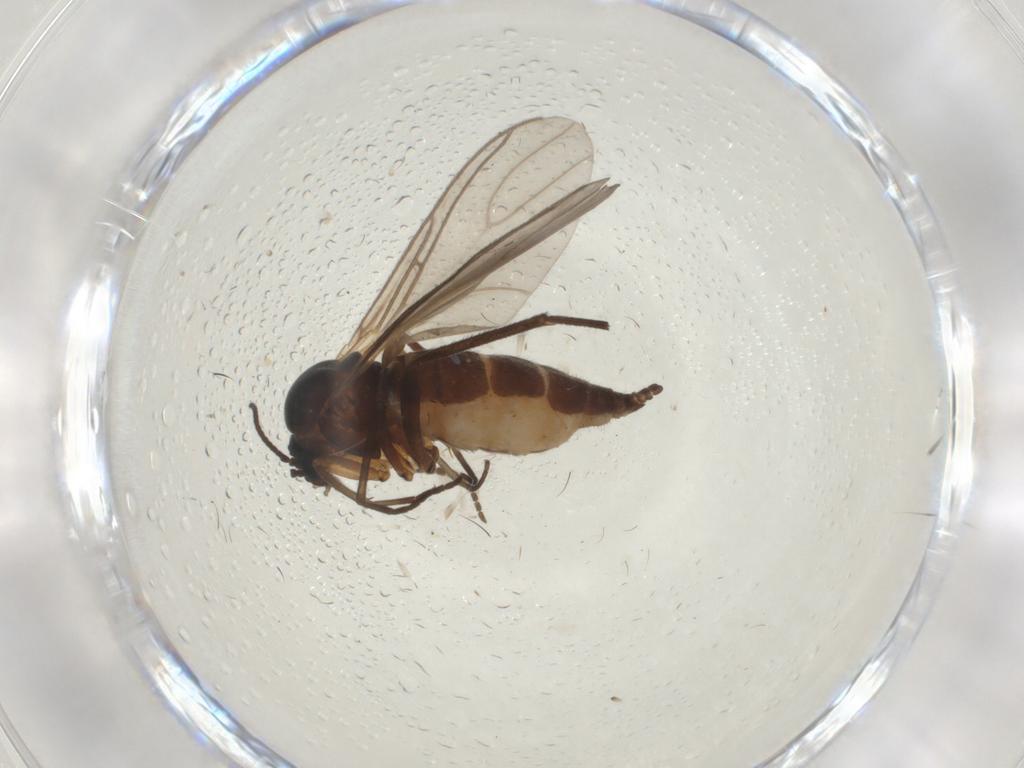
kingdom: Animalia
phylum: Arthropoda
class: Insecta
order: Diptera
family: Sciaridae
